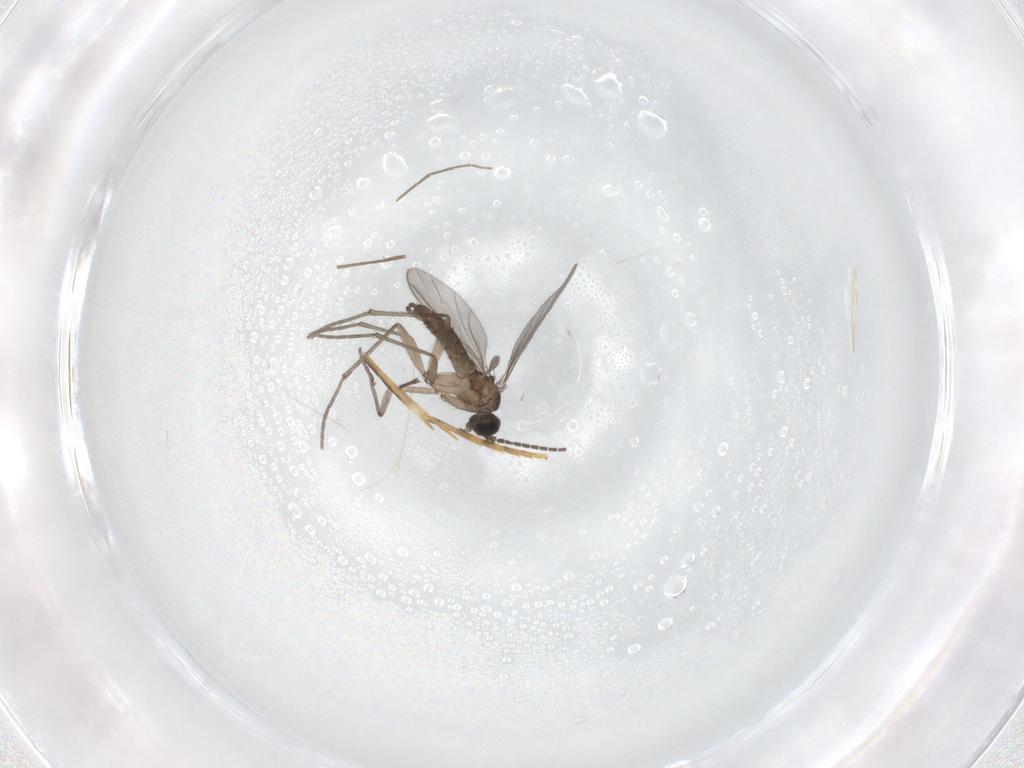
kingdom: Animalia
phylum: Arthropoda
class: Insecta
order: Diptera
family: Sciaridae
